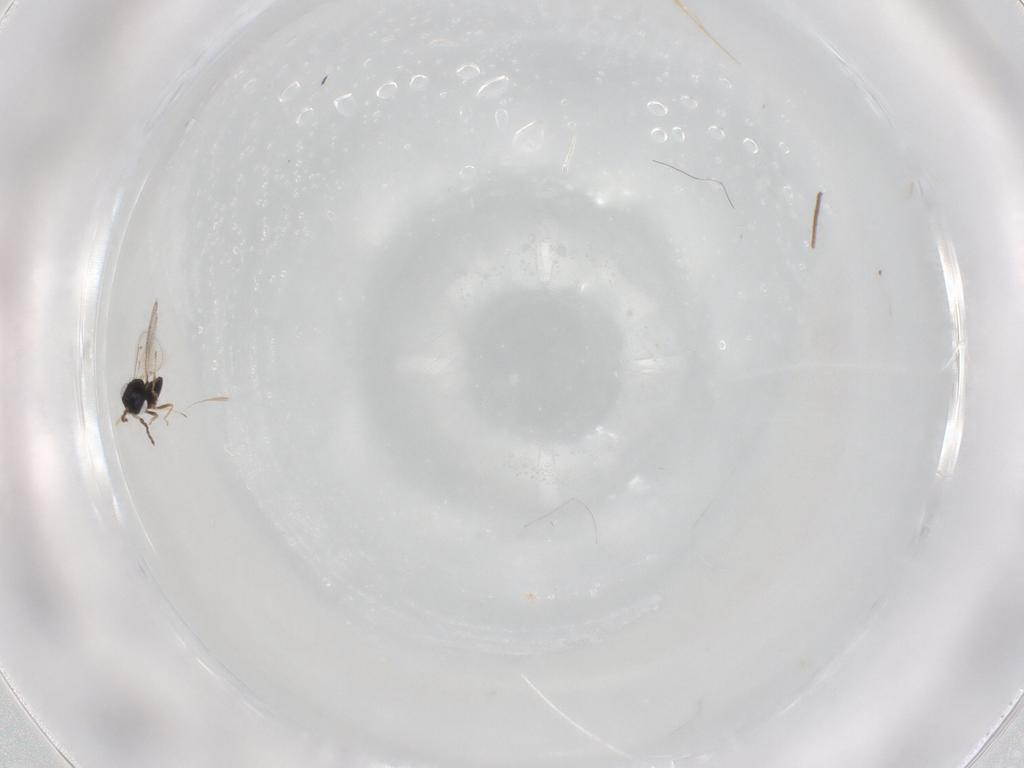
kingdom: Animalia
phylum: Arthropoda
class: Insecta
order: Hymenoptera
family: Eulophidae
